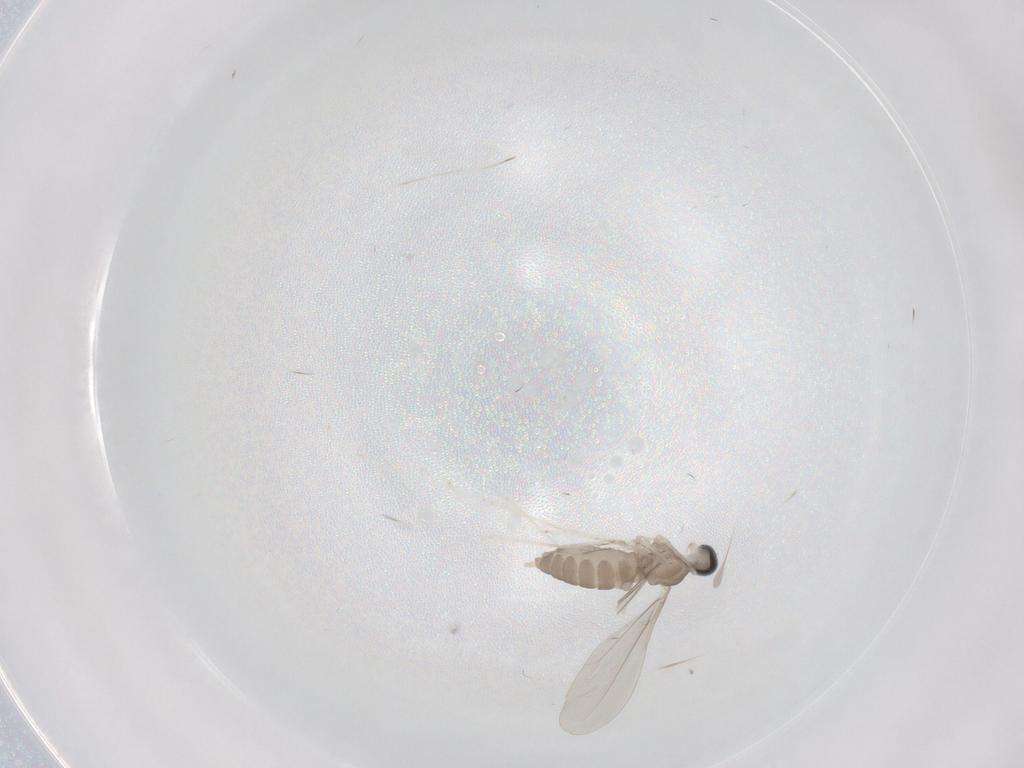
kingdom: Animalia
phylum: Arthropoda
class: Insecta
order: Diptera
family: Cecidomyiidae
